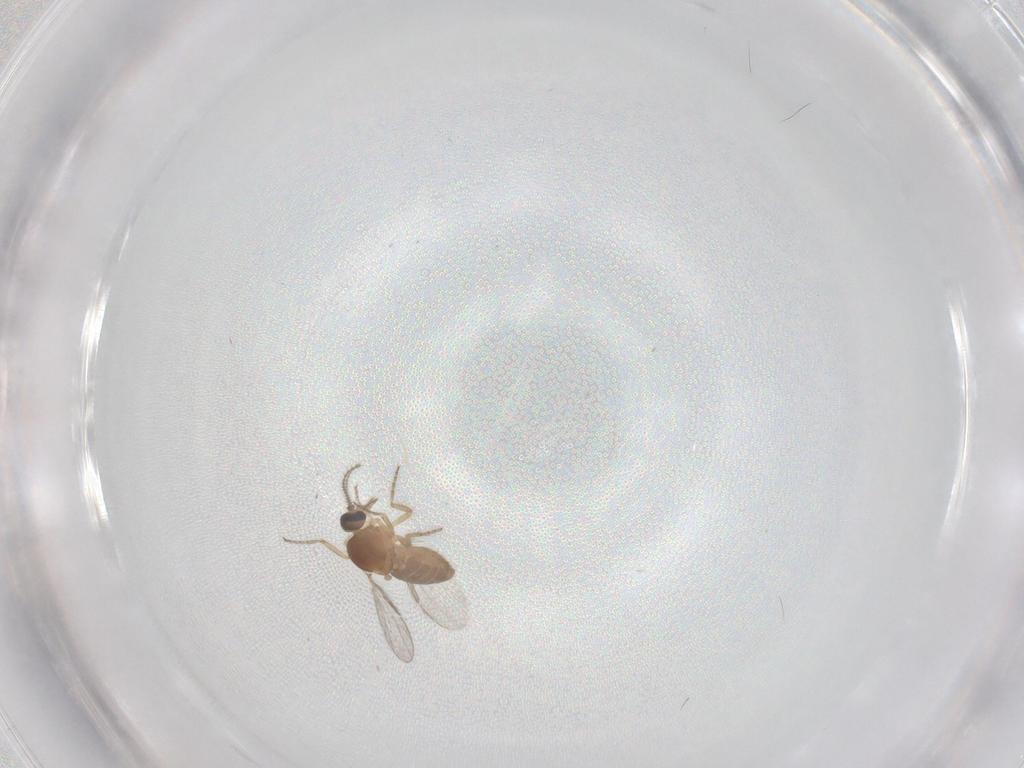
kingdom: Animalia
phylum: Arthropoda
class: Insecta
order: Diptera
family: Ceratopogonidae
